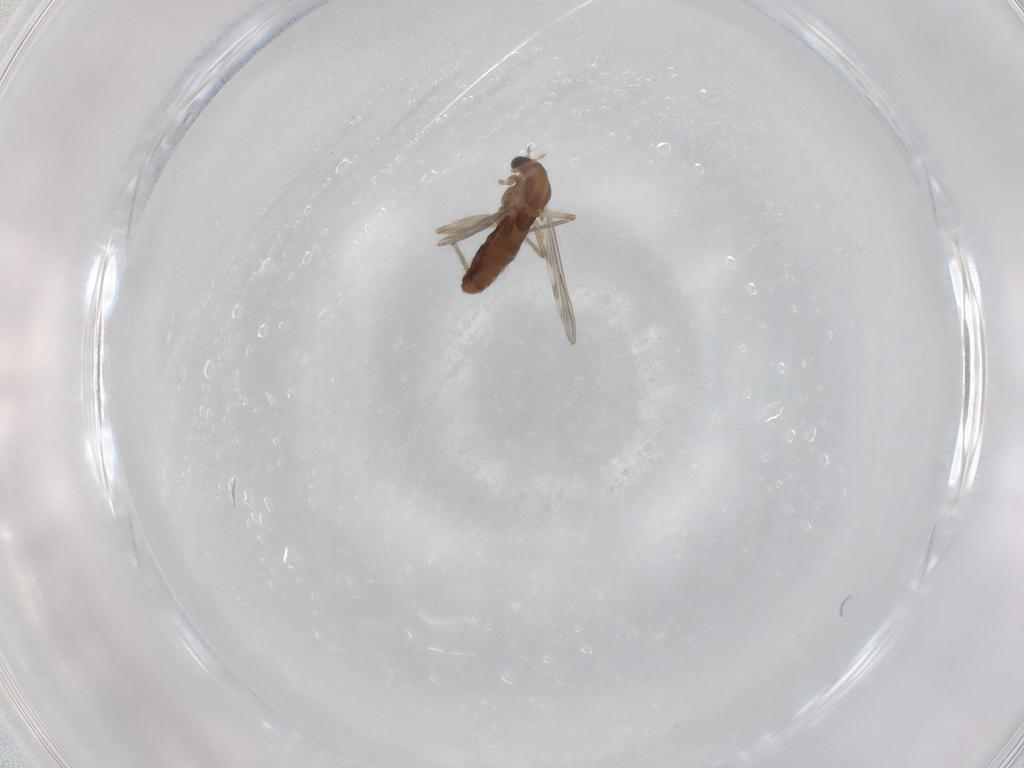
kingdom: Animalia
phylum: Arthropoda
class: Insecta
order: Diptera
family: Chironomidae
